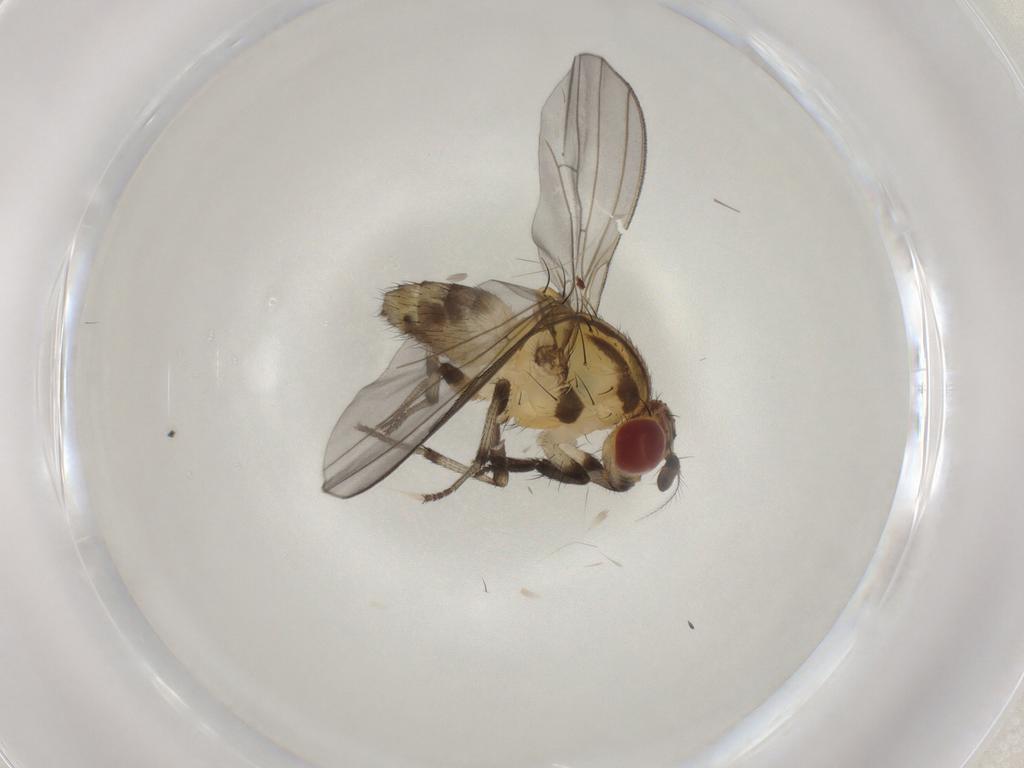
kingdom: Animalia
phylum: Arthropoda
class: Insecta
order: Diptera
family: Lauxaniidae
